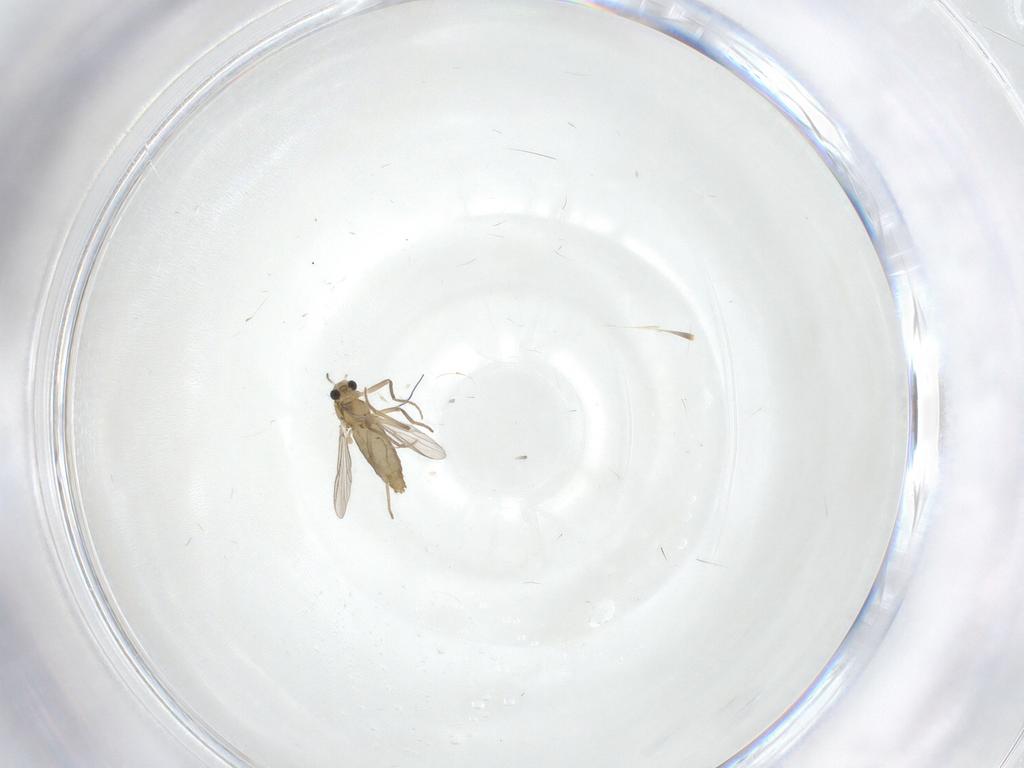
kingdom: Animalia
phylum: Arthropoda
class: Insecta
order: Diptera
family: Chironomidae
